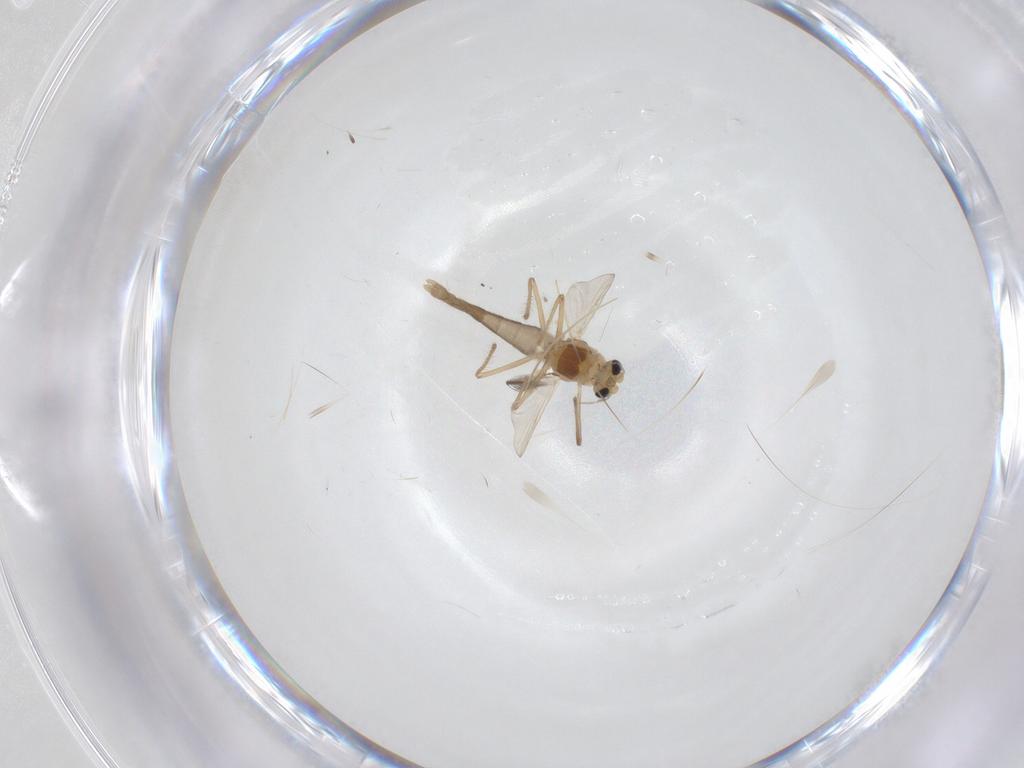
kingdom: Animalia
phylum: Arthropoda
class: Insecta
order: Diptera
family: Chironomidae
